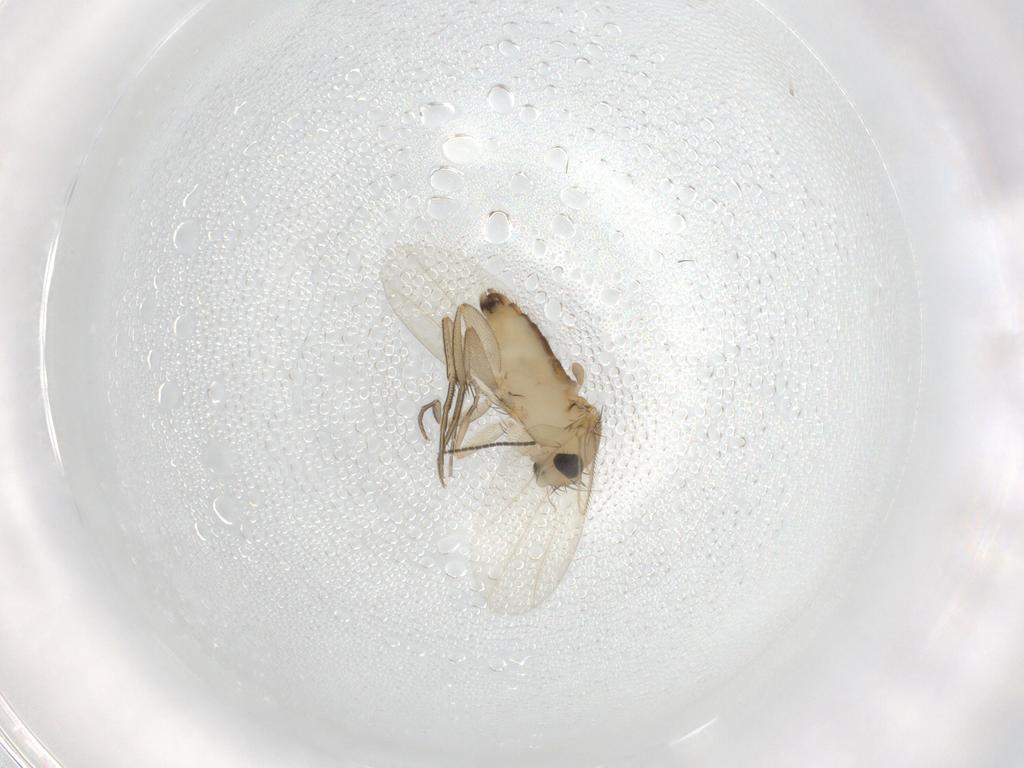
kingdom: Animalia
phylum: Arthropoda
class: Insecta
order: Diptera
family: Phoridae
